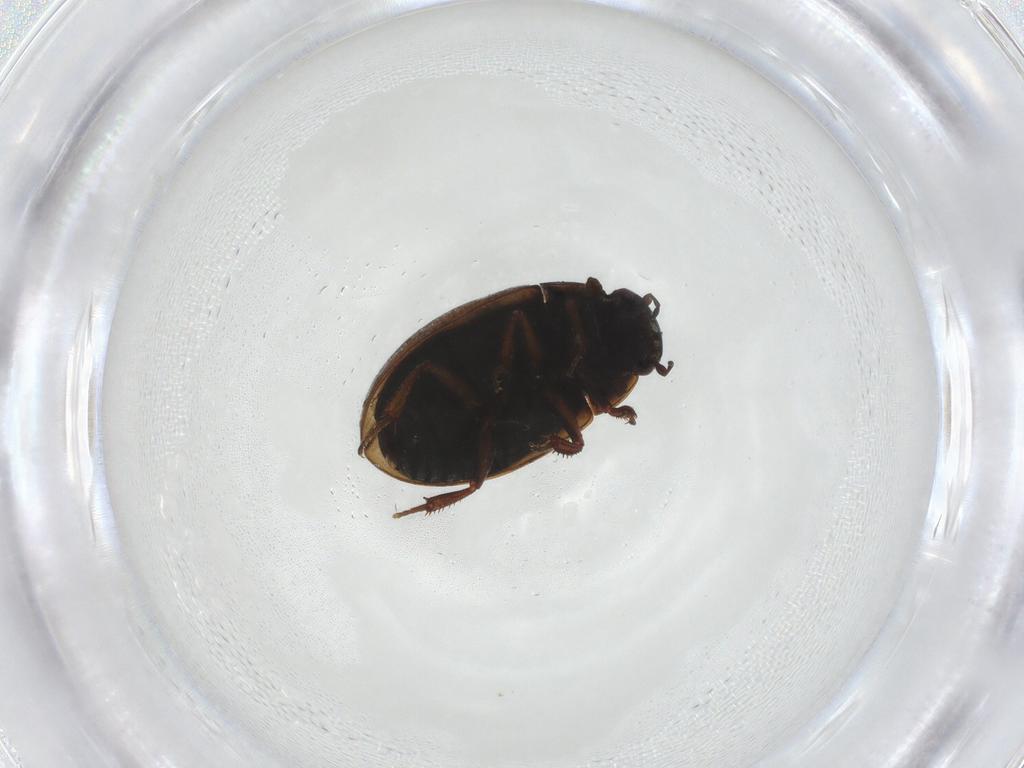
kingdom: Animalia
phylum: Arthropoda
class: Insecta
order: Coleoptera
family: Hydrophilidae
